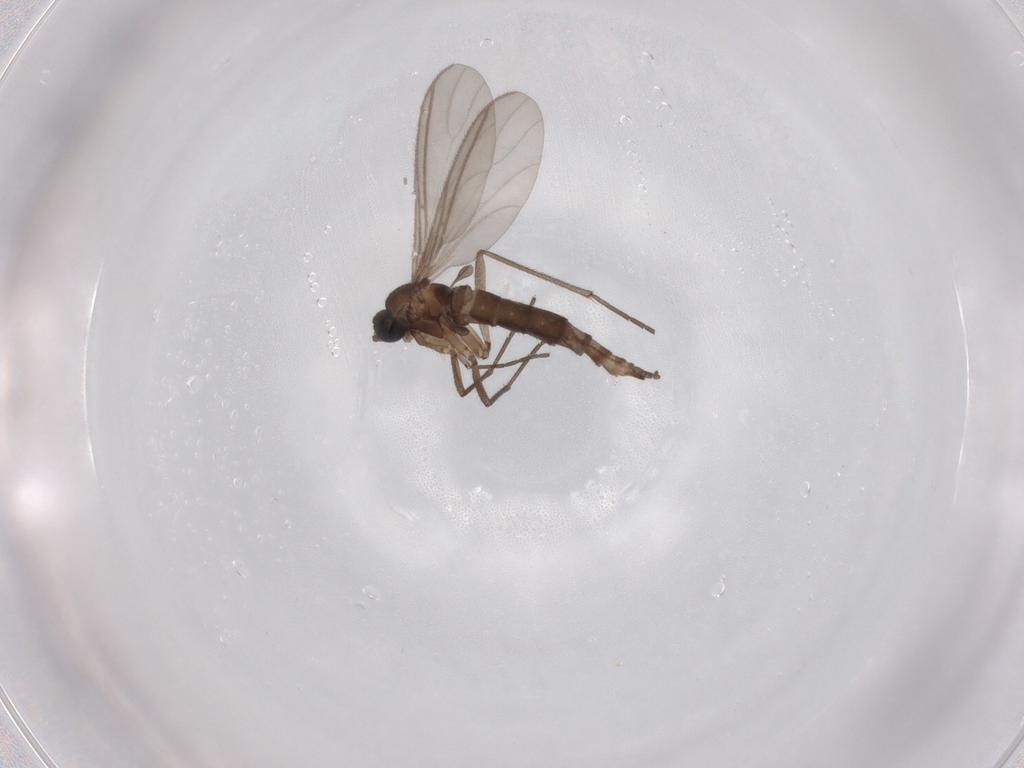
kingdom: Animalia
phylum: Arthropoda
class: Insecta
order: Diptera
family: Sciaridae
